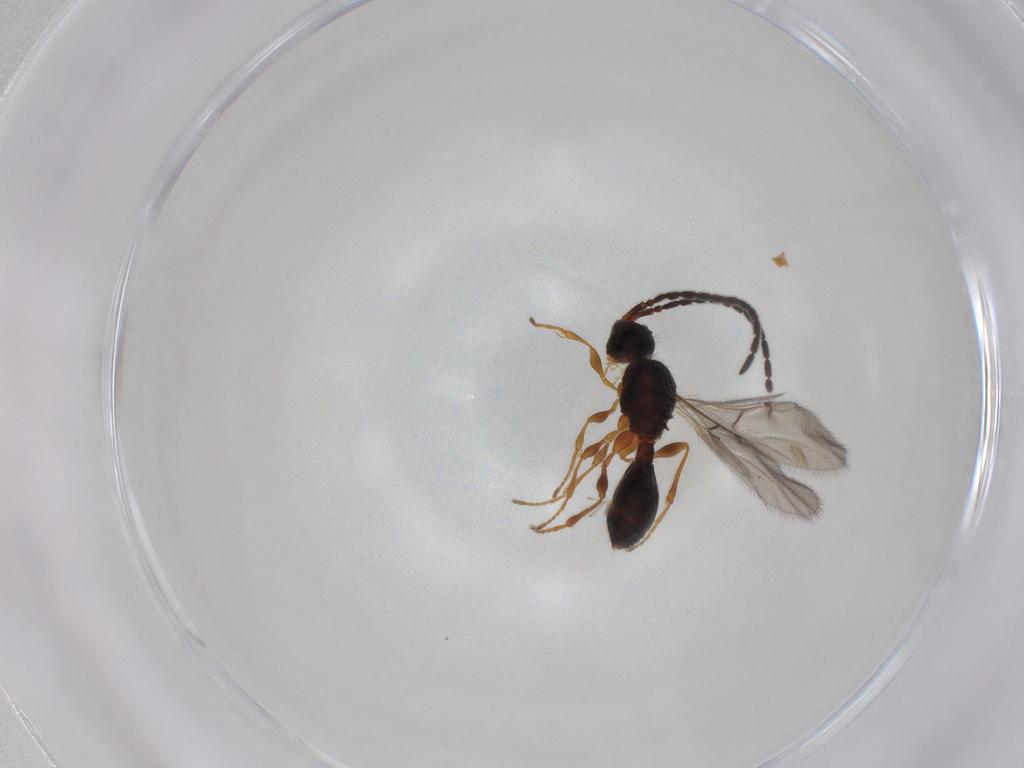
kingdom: Animalia
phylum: Arthropoda
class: Insecta
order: Hymenoptera
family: Diapriidae
